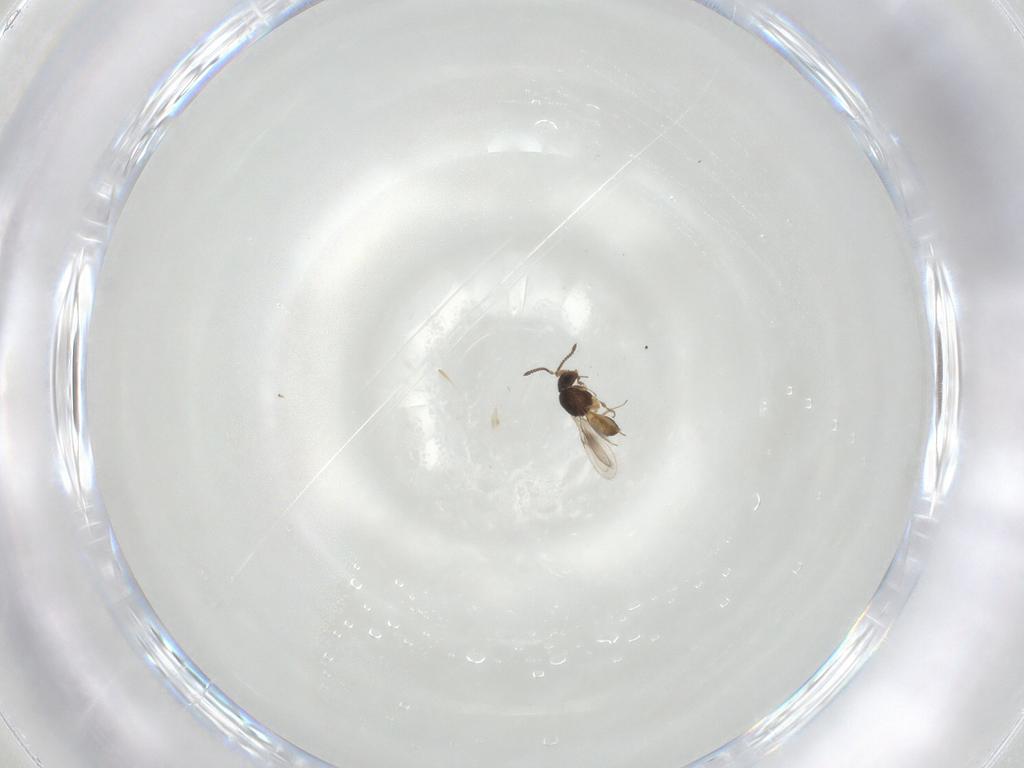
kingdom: Animalia
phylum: Arthropoda
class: Insecta
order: Hymenoptera
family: Scelionidae
